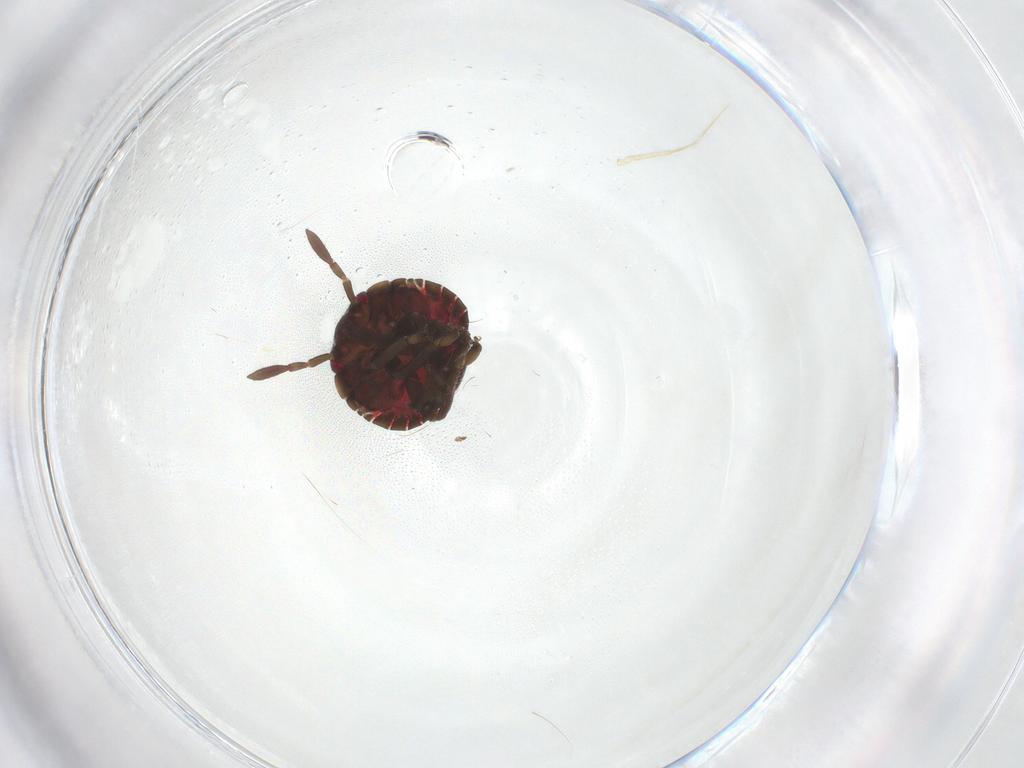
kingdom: Animalia
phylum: Arthropoda
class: Insecta
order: Hemiptera
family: Pentatomidae
